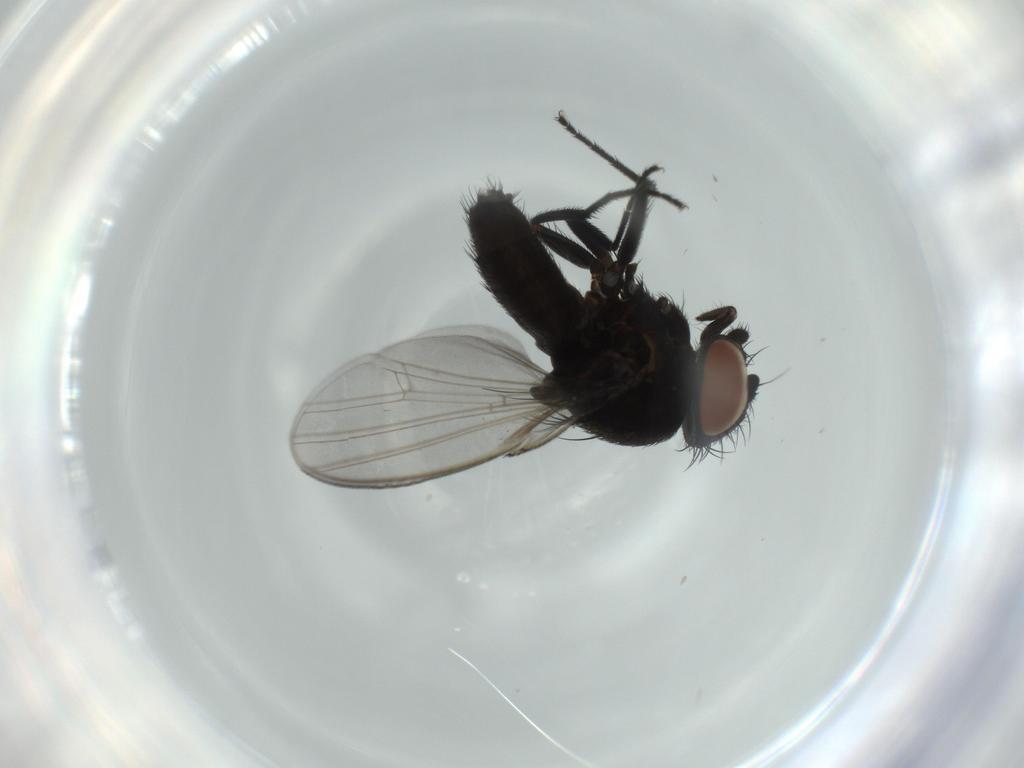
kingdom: Animalia
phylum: Arthropoda
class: Insecta
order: Diptera
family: Milichiidae
